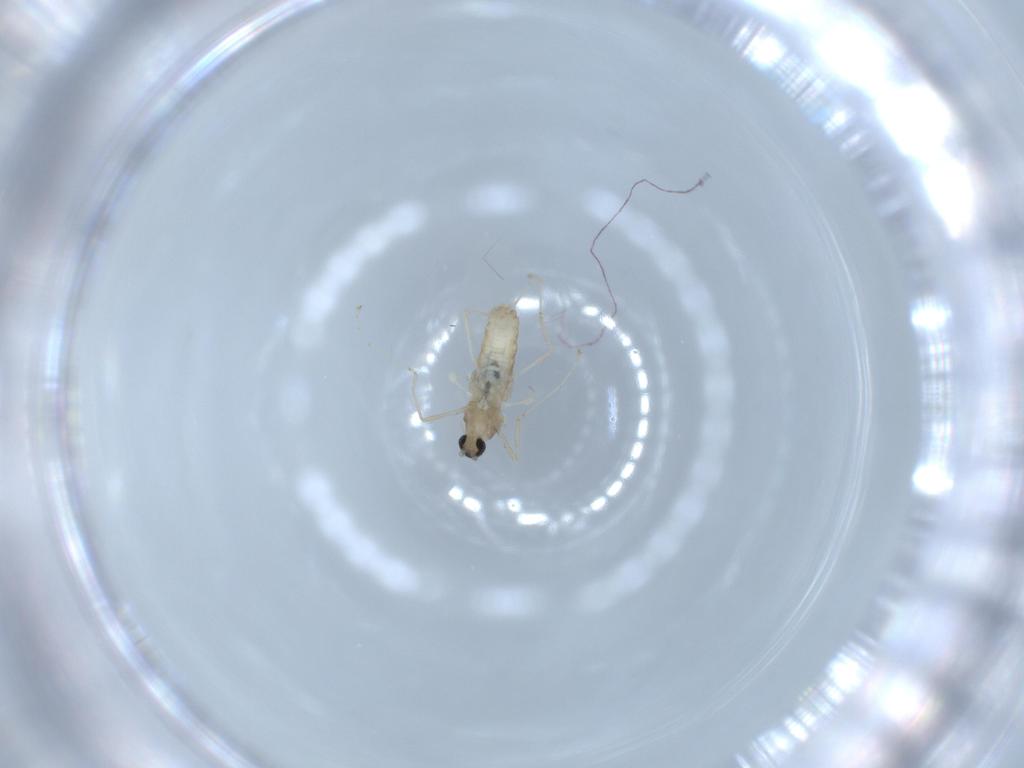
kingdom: Animalia
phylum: Arthropoda
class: Insecta
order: Diptera
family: Cecidomyiidae
